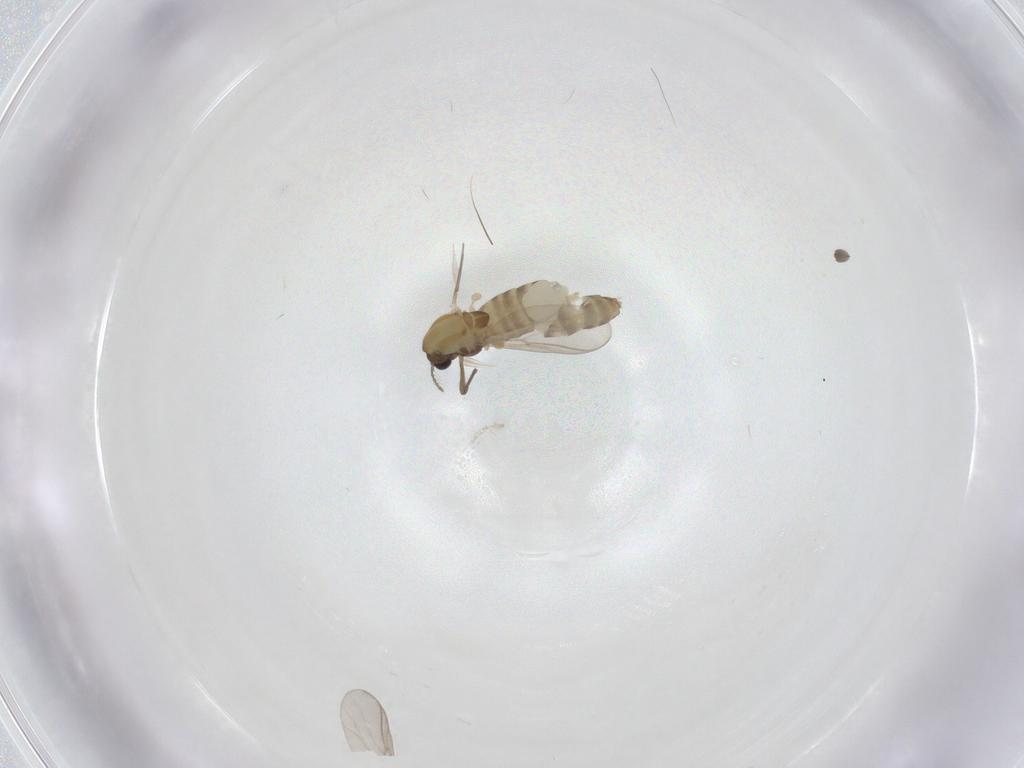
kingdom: Animalia
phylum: Arthropoda
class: Insecta
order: Diptera
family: Chironomidae
